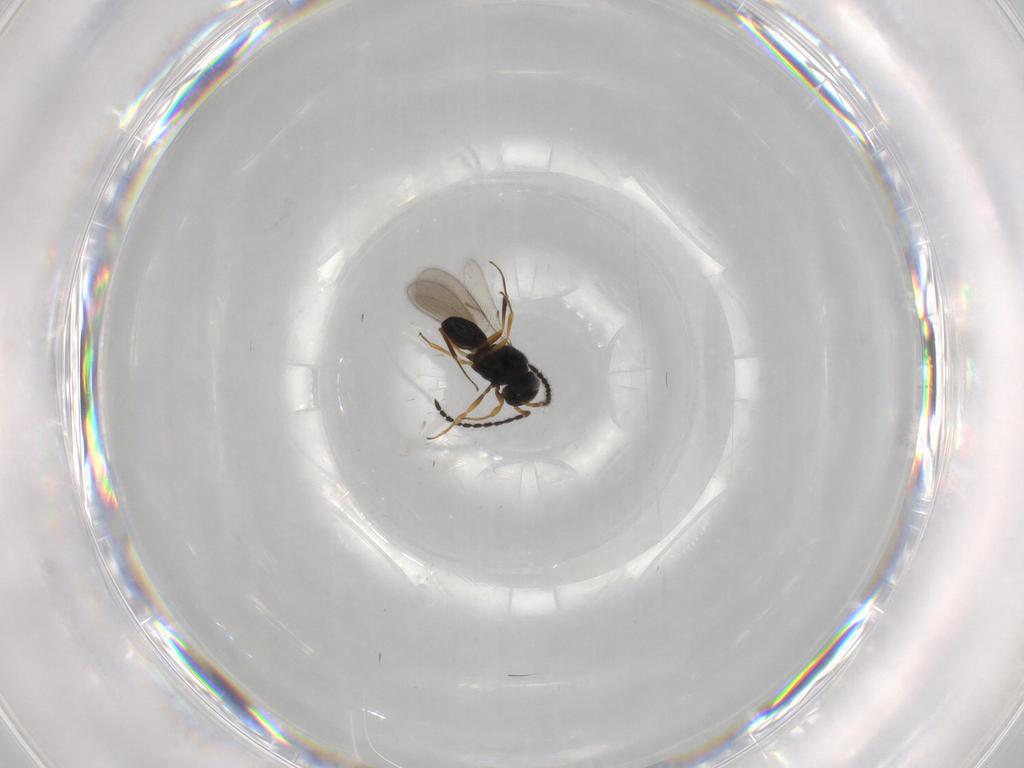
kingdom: Animalia
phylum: Arthropoda
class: Insecta
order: Hymenoptera
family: Scelionidae
